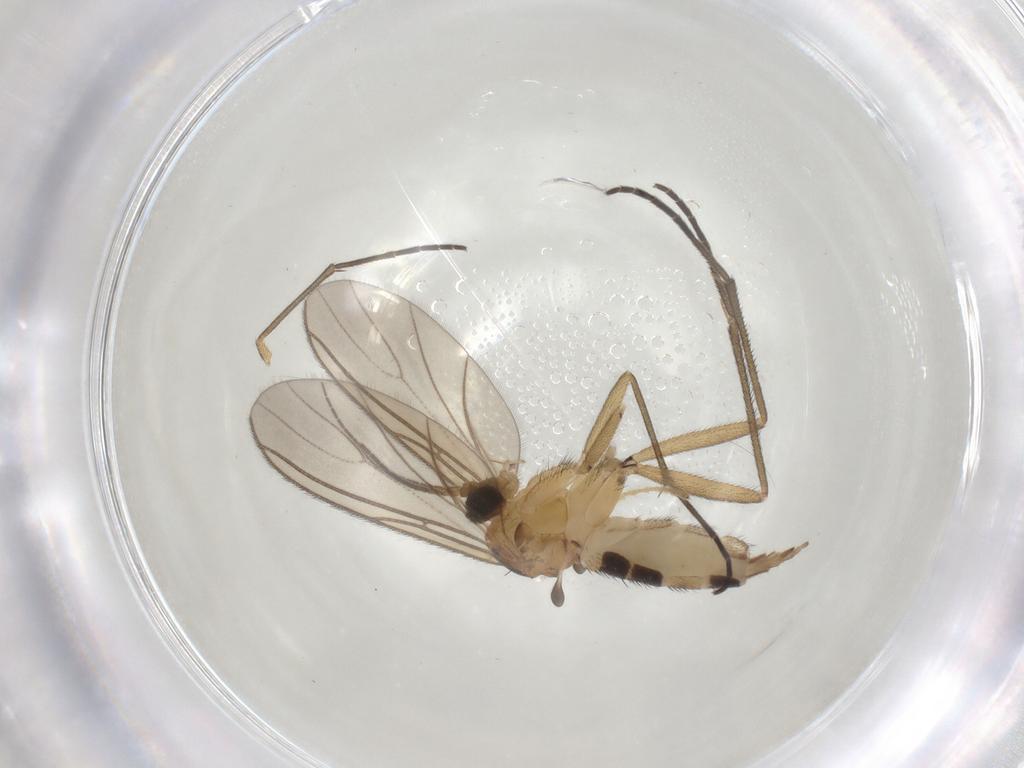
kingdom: Animalia
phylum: Arthropoda
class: Insecta
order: Diptera
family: Limoniidae
